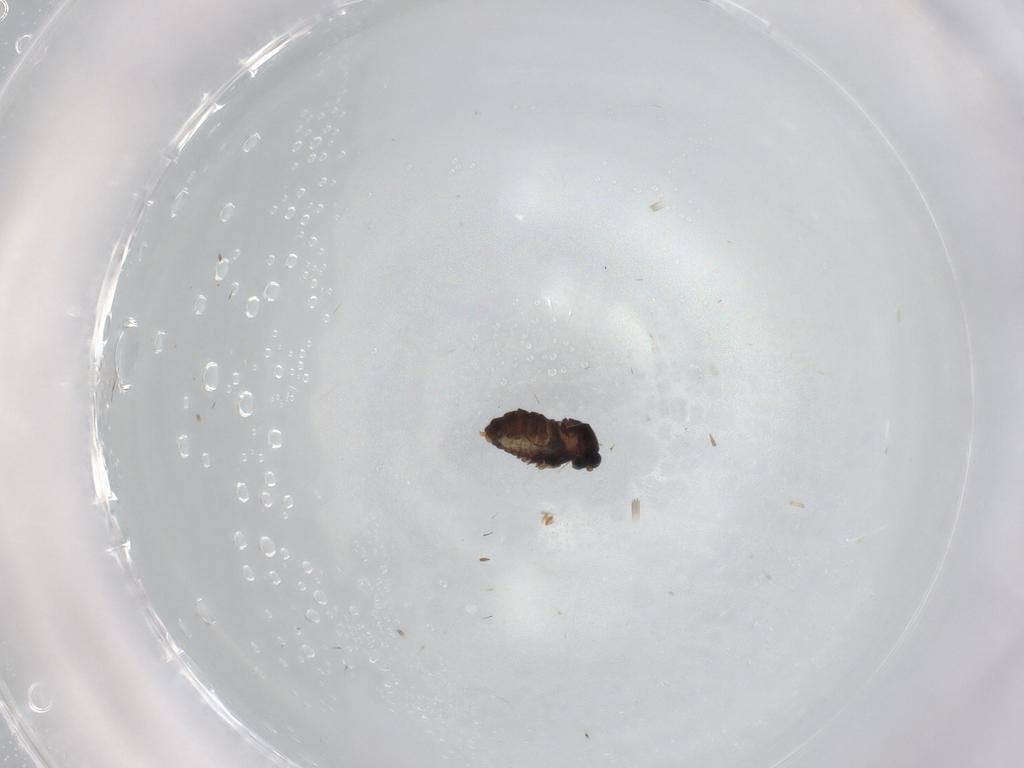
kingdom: Animalia
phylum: Arthropoda
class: Insecta
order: Diptera
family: Cecidomyiidae
